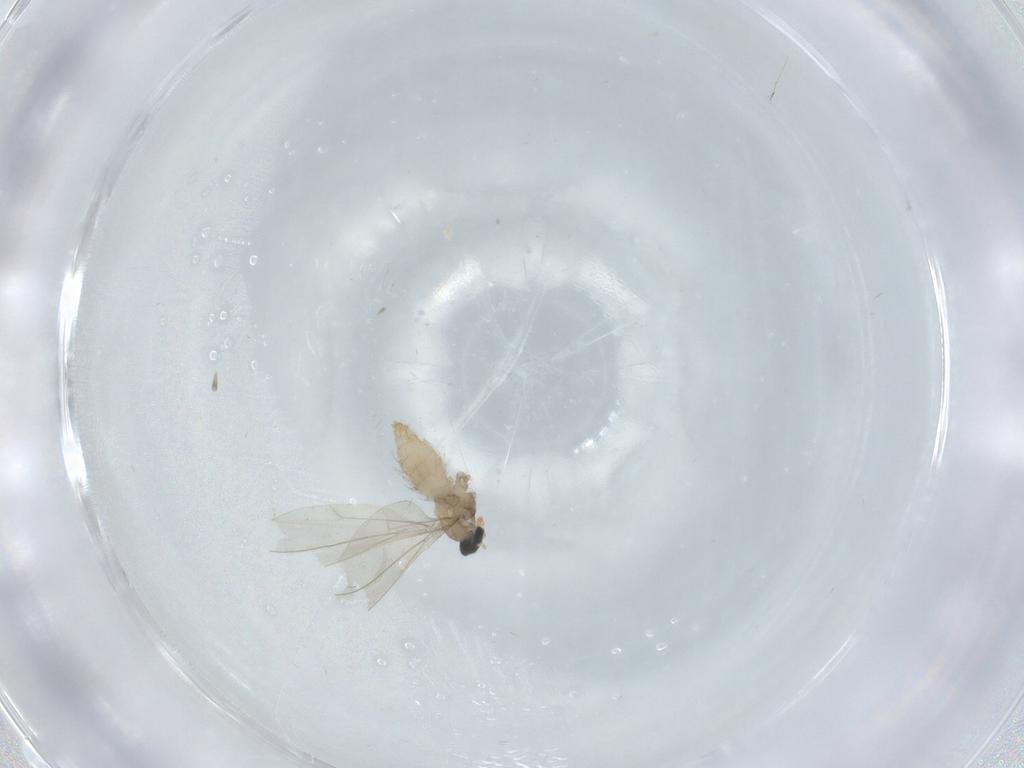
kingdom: Animalia
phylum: Arthropoda
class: Insecta
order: Diptera
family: Cecidomyiidae
